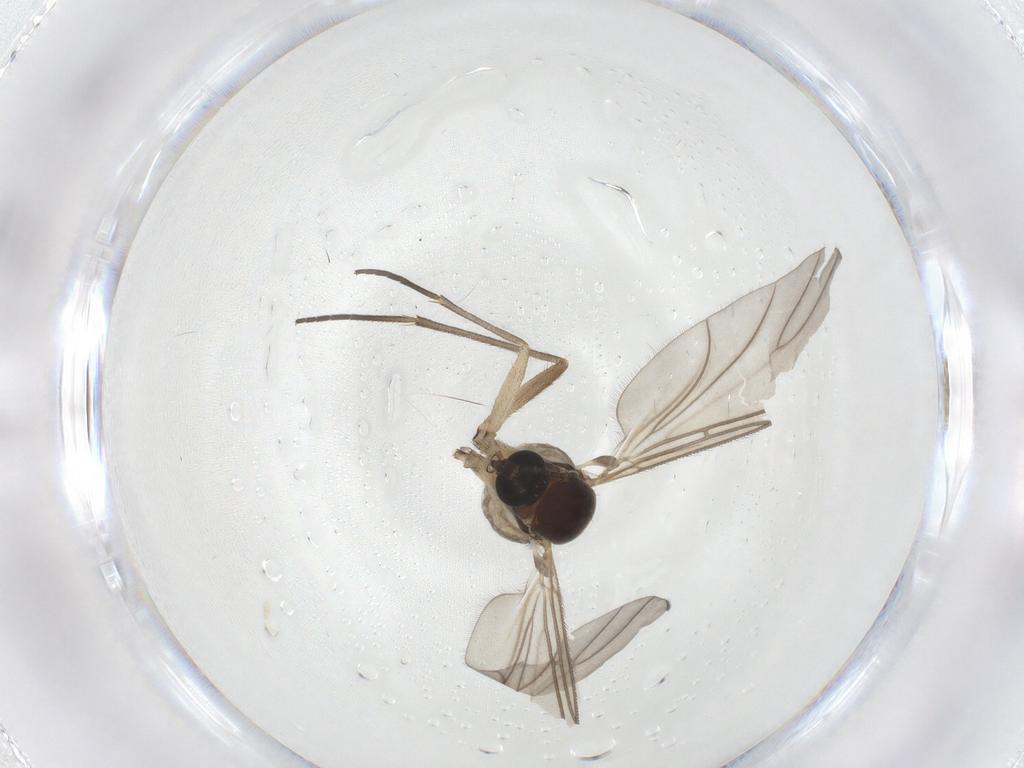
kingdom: Animalia
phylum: Arthropoda
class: Insecta
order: Diptera
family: Sciaridae
